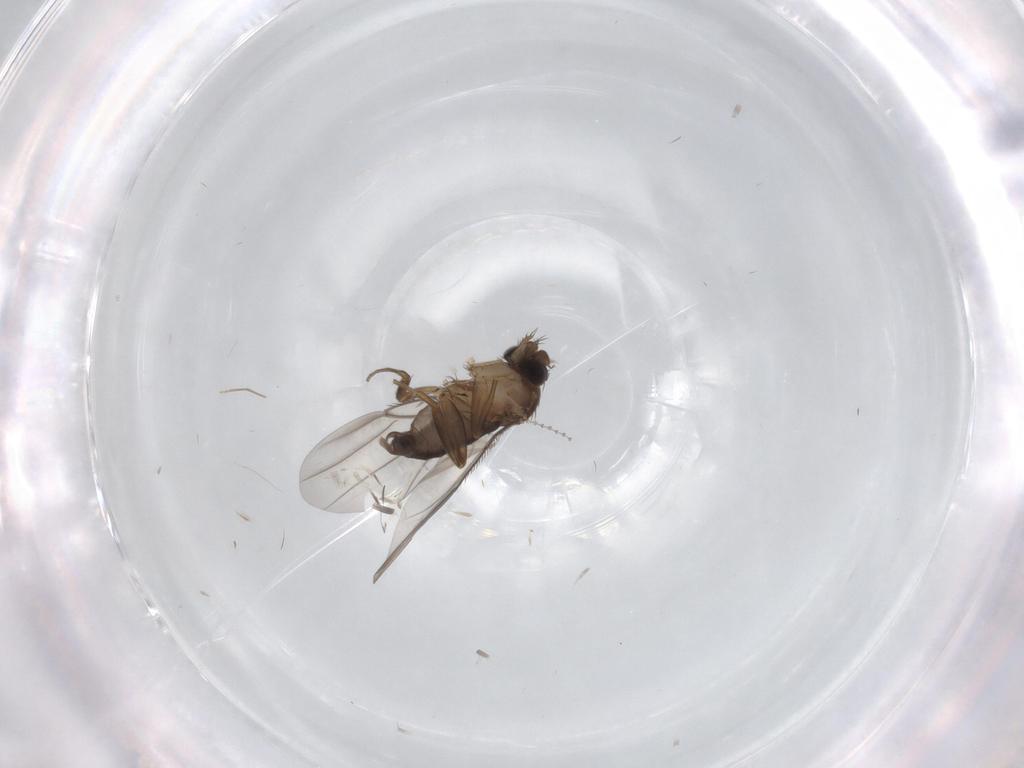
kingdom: Animalia
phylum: Arthropoda
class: Insecta
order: Diptera
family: Phoridae
